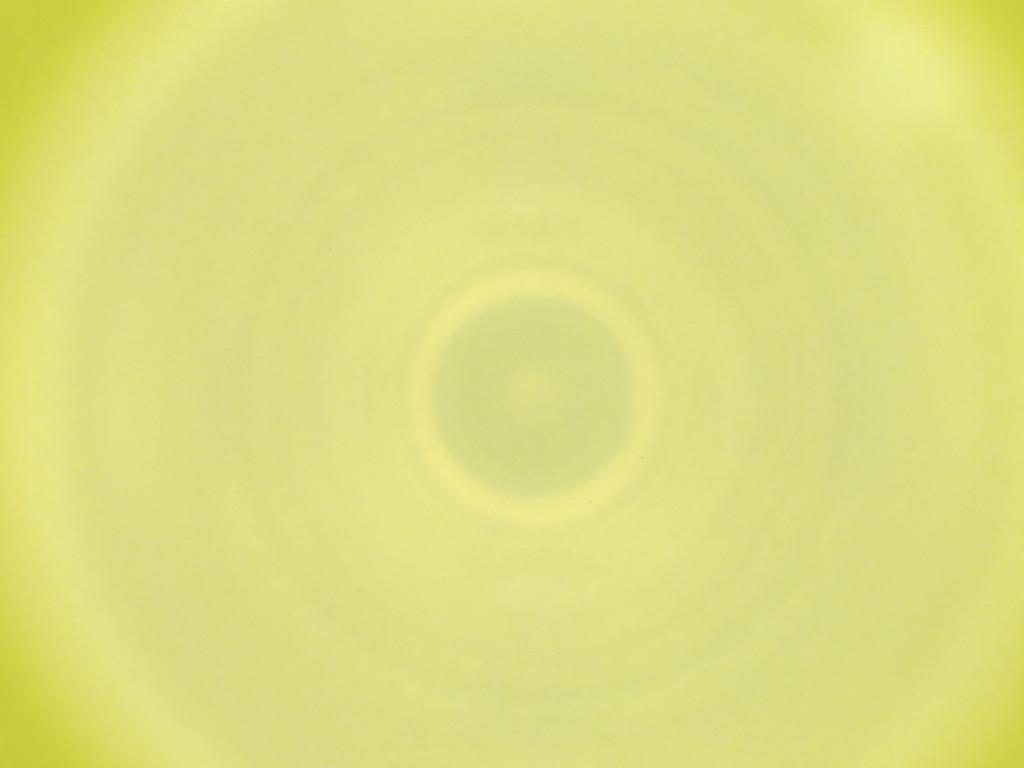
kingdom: Animalia
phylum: Arthropoda
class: Insecta
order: Diptera
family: Cecidomyiidae
